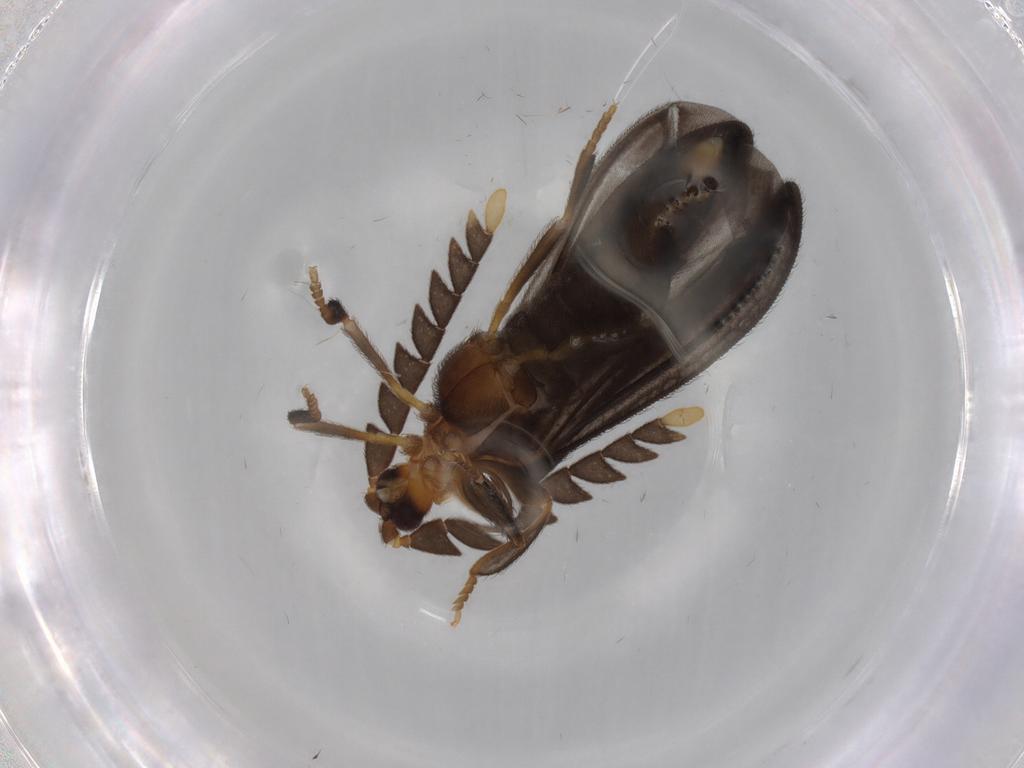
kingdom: Animalia
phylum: Arthropoda
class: Insecta
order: Coleoptera
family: Lycidae
